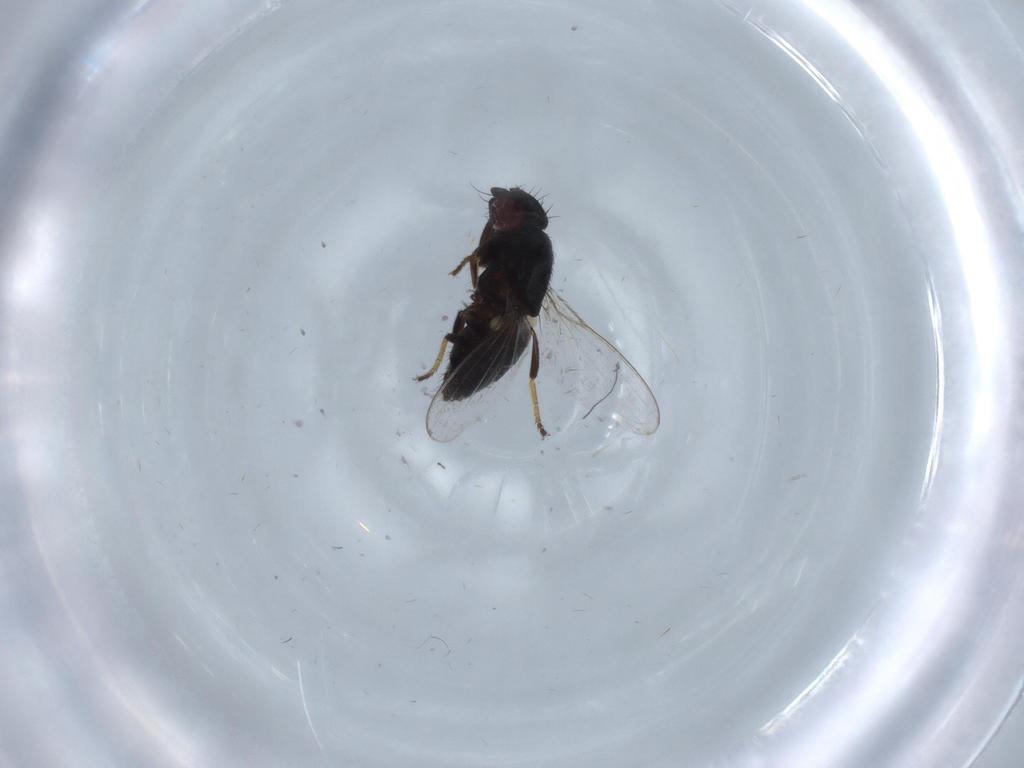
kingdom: Animalia
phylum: Arthropoda
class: Insecta
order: Diptera
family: Milichiidae
